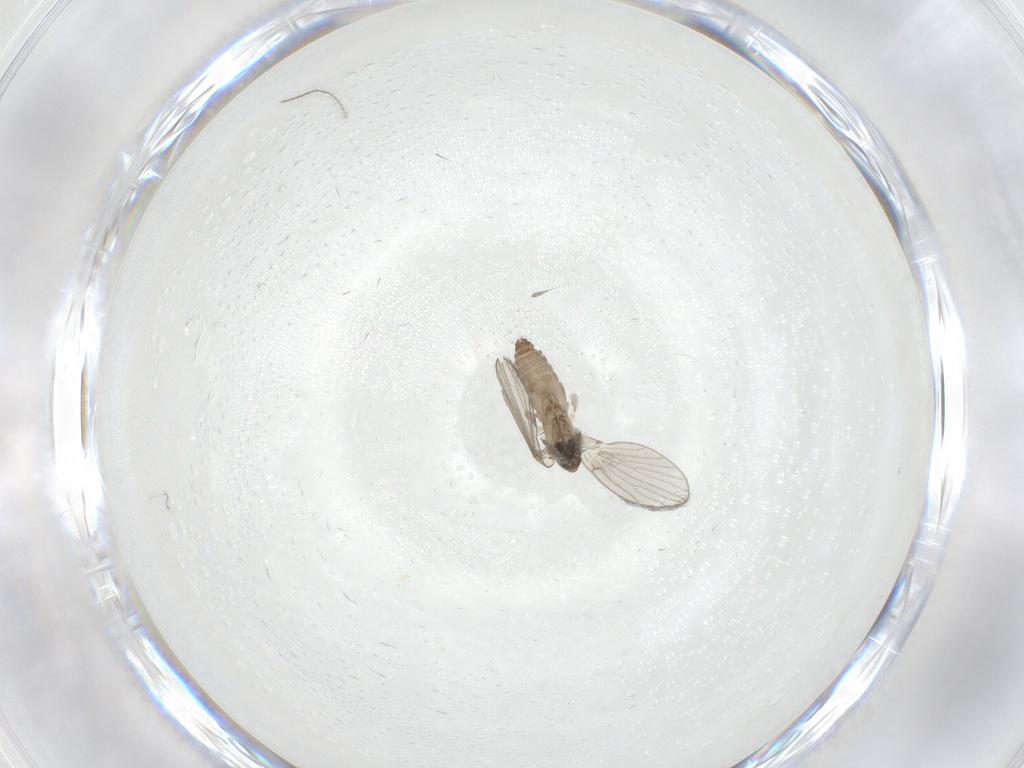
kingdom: Animalia
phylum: Arthropoda
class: Insecta
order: Diptera
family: Ceratopogonidae
